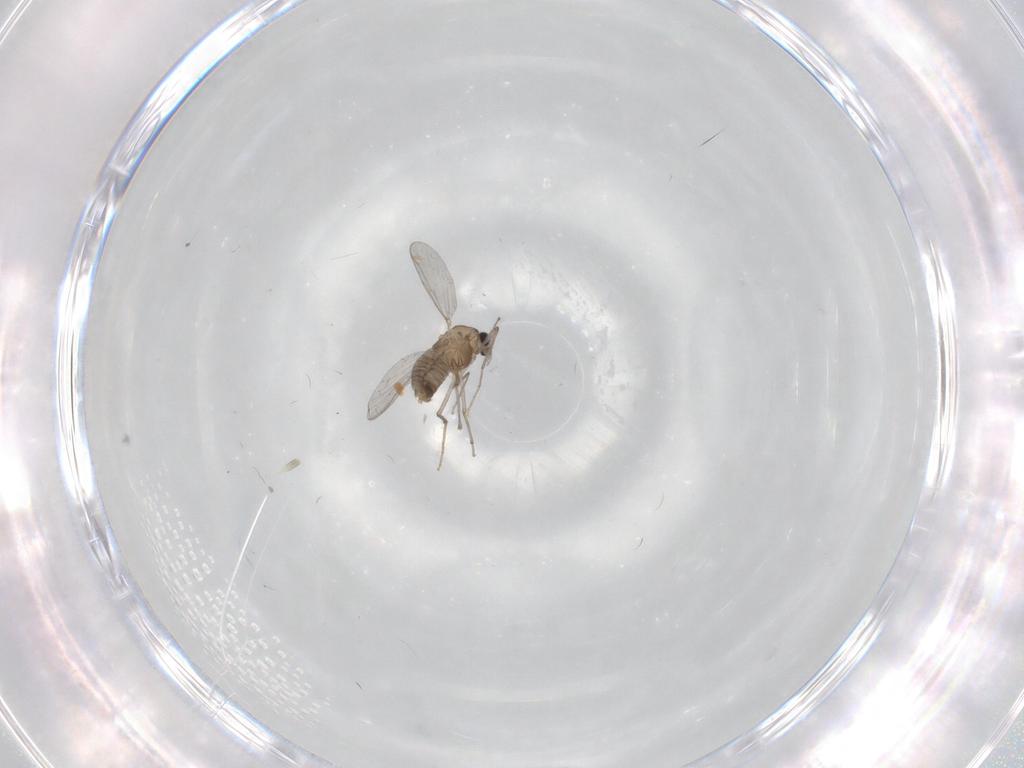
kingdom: Animalia
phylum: Arthropoda
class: Insecta
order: Diptera
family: Chironomidae
